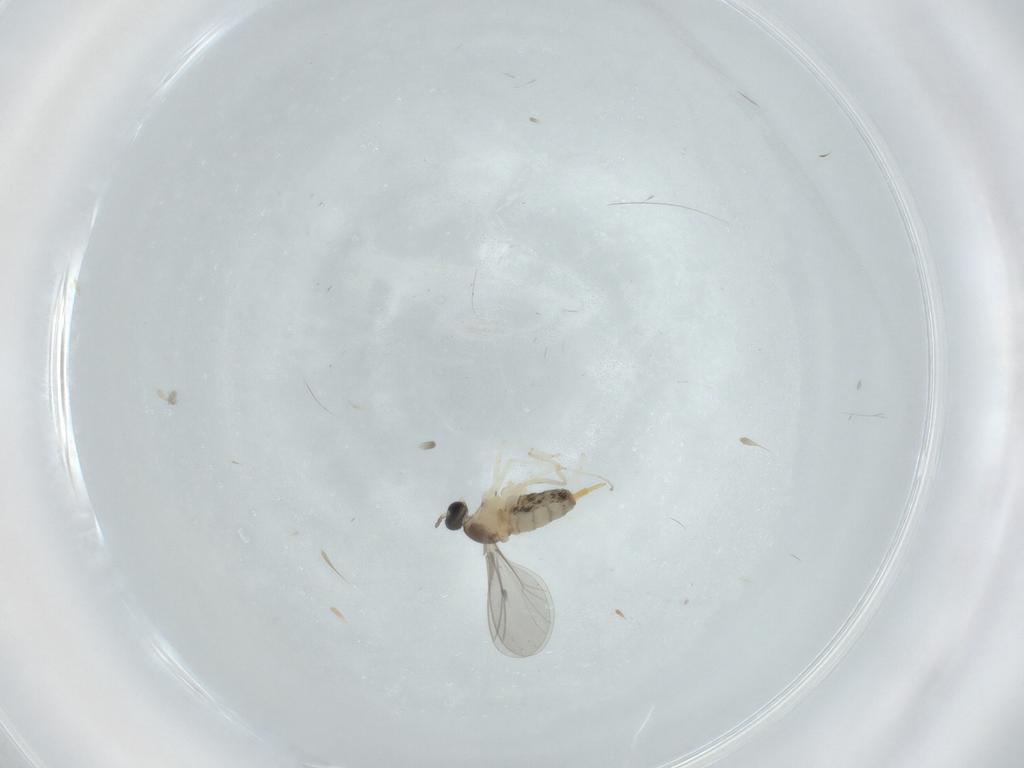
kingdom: Animalia
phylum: Arthropoda
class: Insecta
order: Diptera
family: Cecidomyiidae
